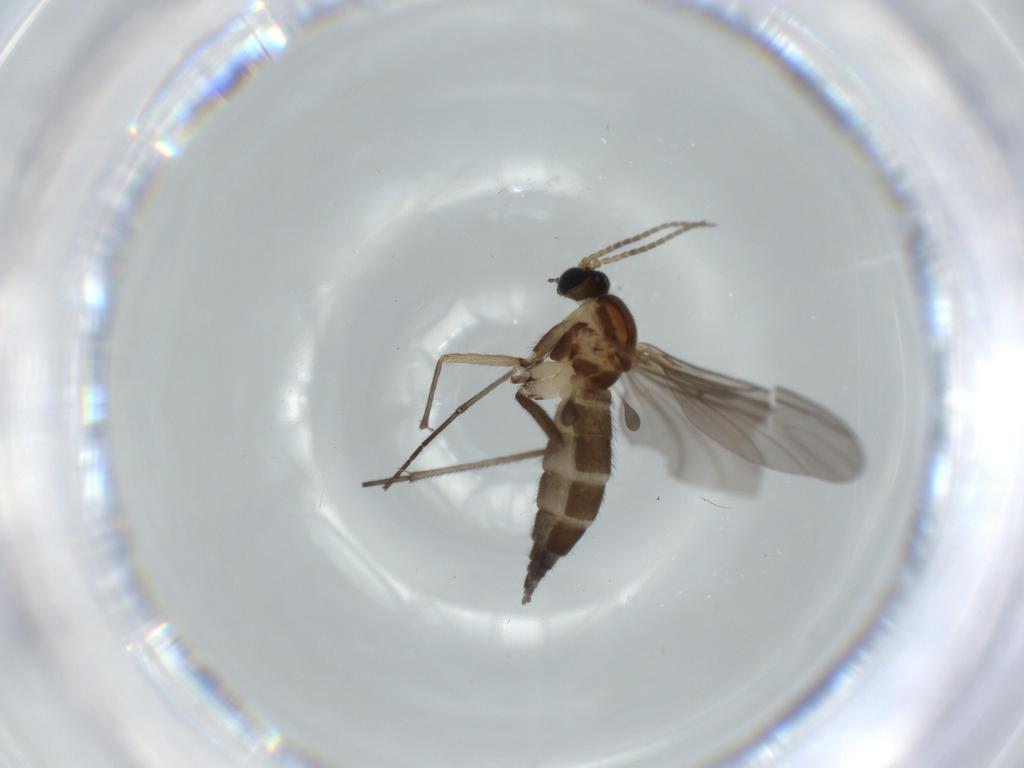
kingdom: Animalia
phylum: Arthropoda
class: Insecta
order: Diptera
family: Sciaridae
